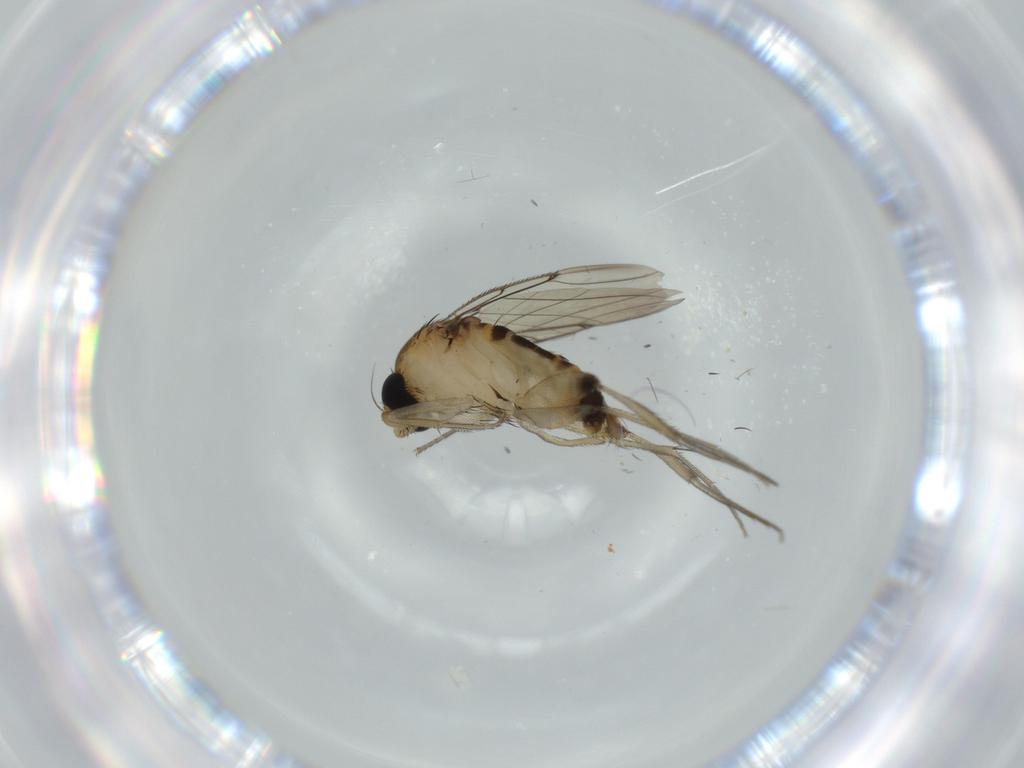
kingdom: Animalia
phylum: Arthropoda
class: Insecta
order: Diptera
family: Phoridae
